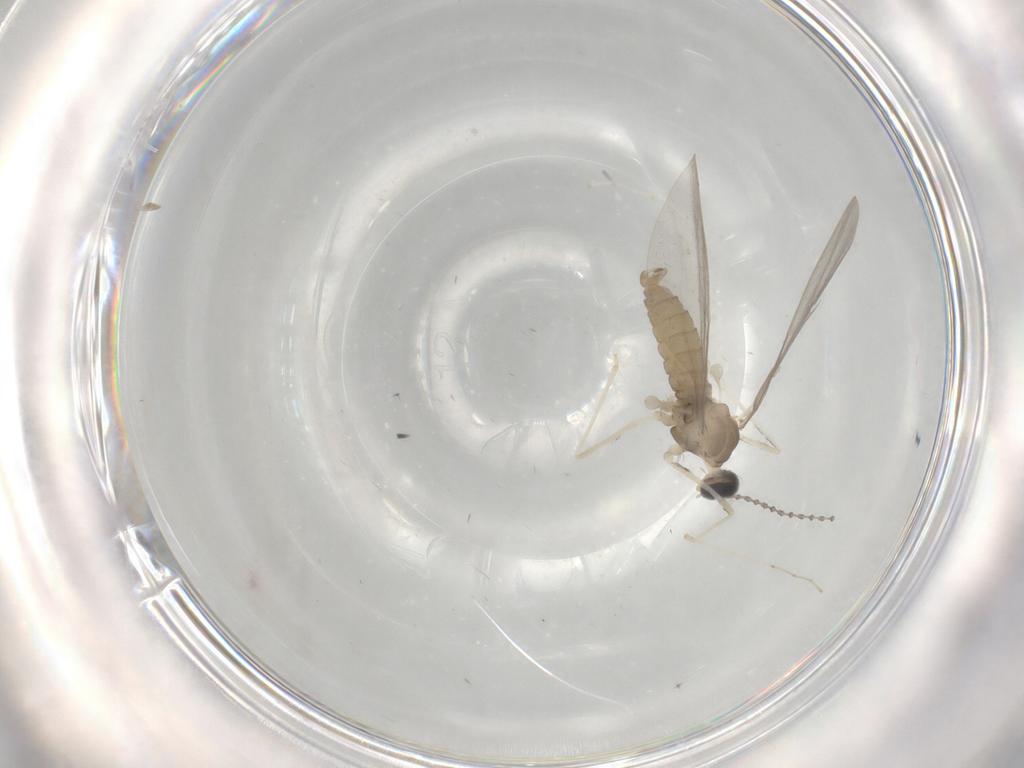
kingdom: Animalia
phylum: Arthropoda
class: Insecta
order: Diptera
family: Cecidomyiidae
